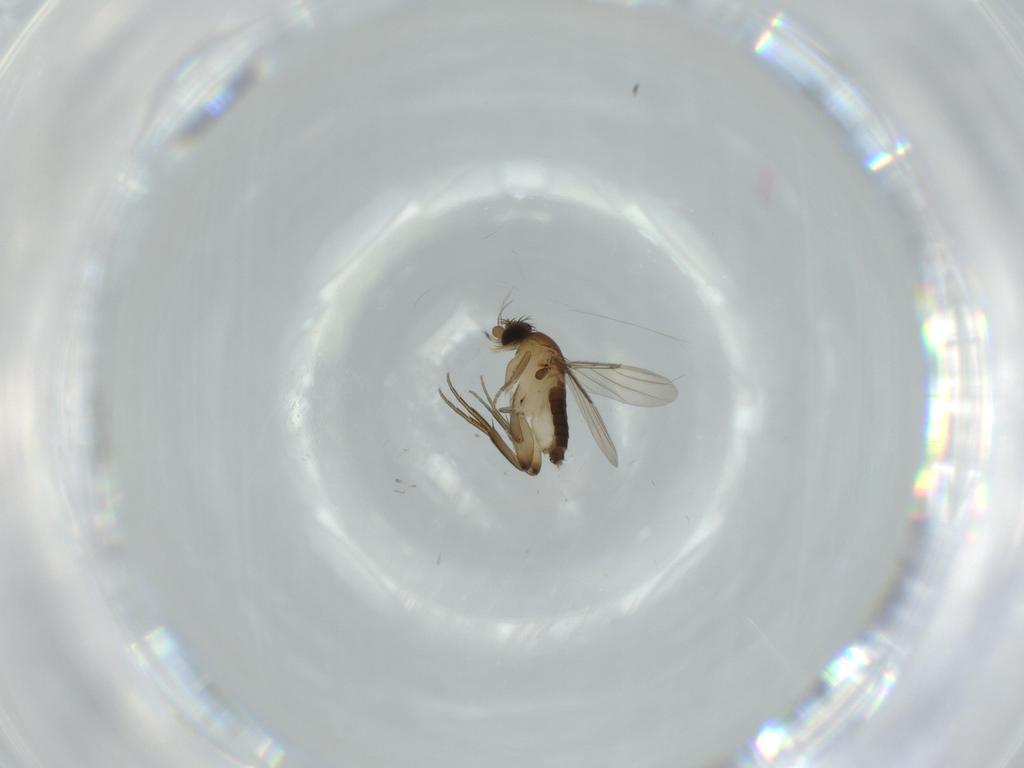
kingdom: Animalia
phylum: Arthropoda
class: Insecta
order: Diptera
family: Phoridae
